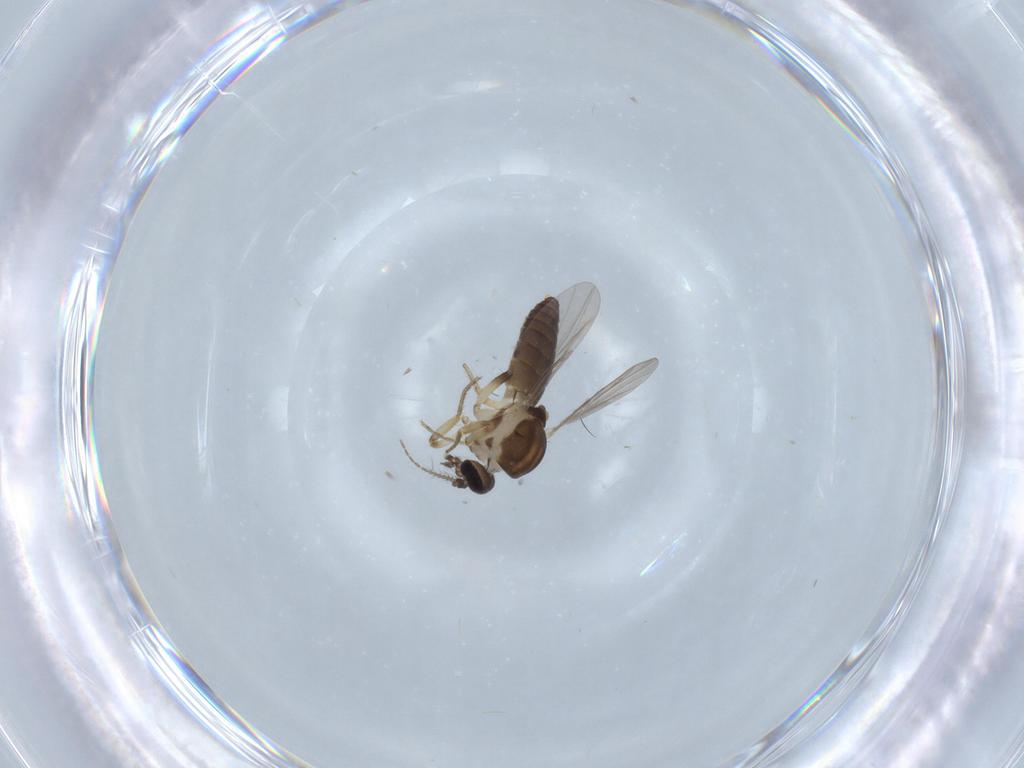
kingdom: Animalia
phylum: Arthropoda
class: Insecta
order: Diptera
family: Ceratopogonidae
